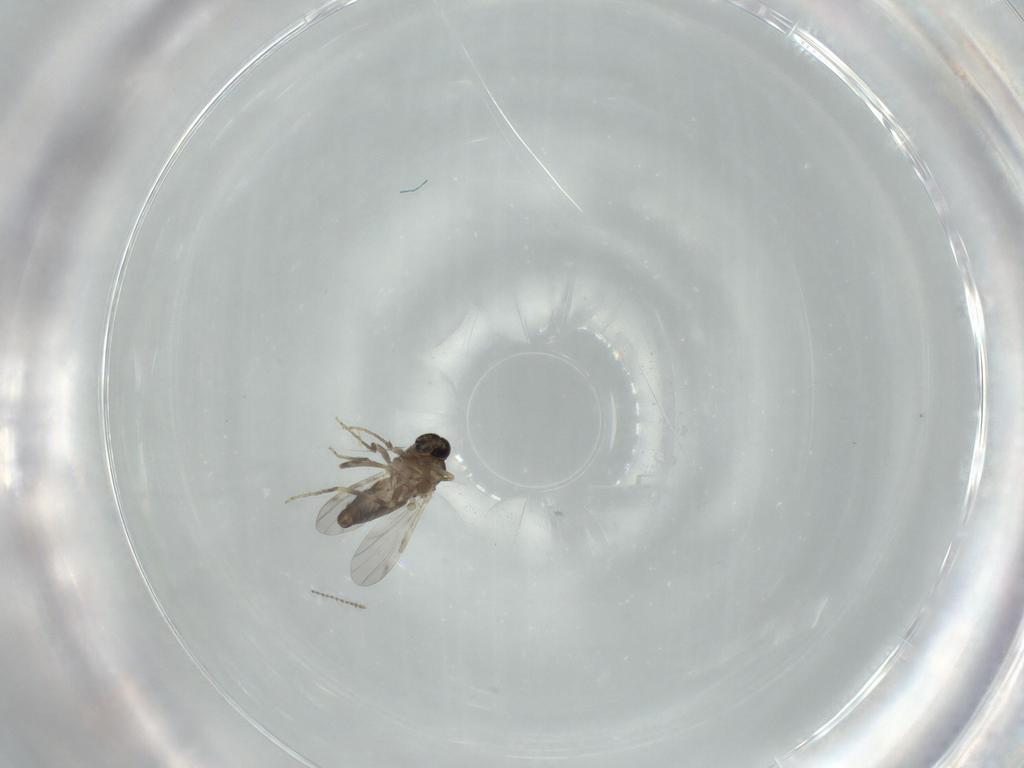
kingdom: Animalia
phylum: Arthropoda
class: Insecta
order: Diptera
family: Ceratopogonidae
